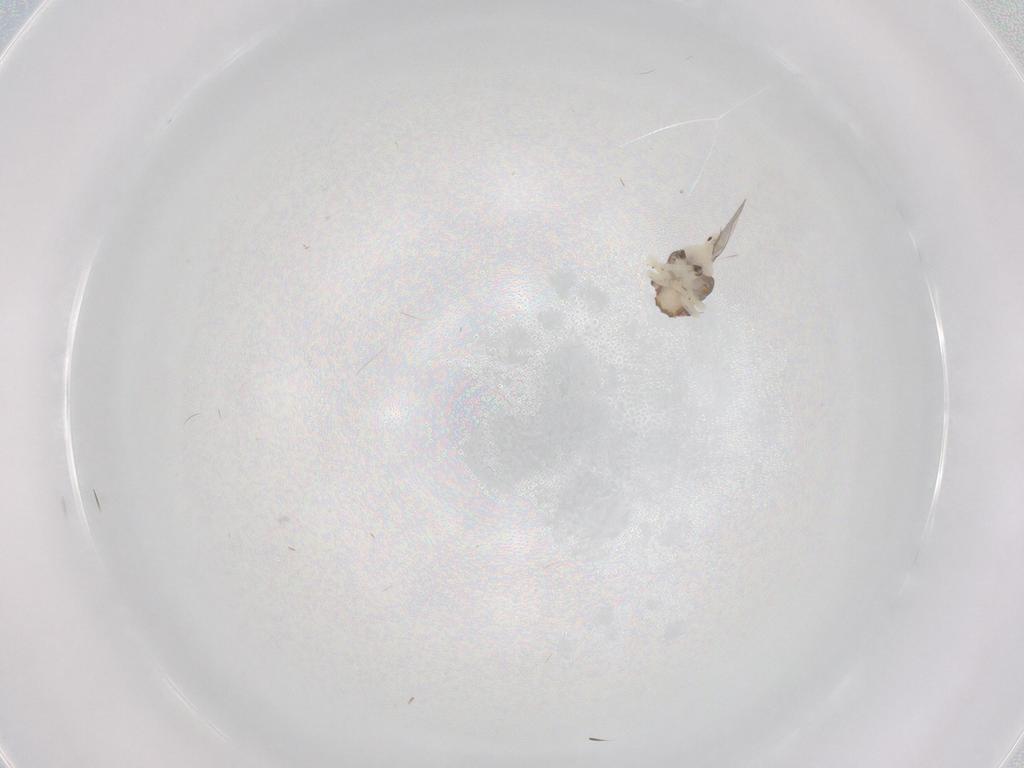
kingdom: Animalia
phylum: Arthropoda
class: Insecta
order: Hemiptera
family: Nogodinidae
